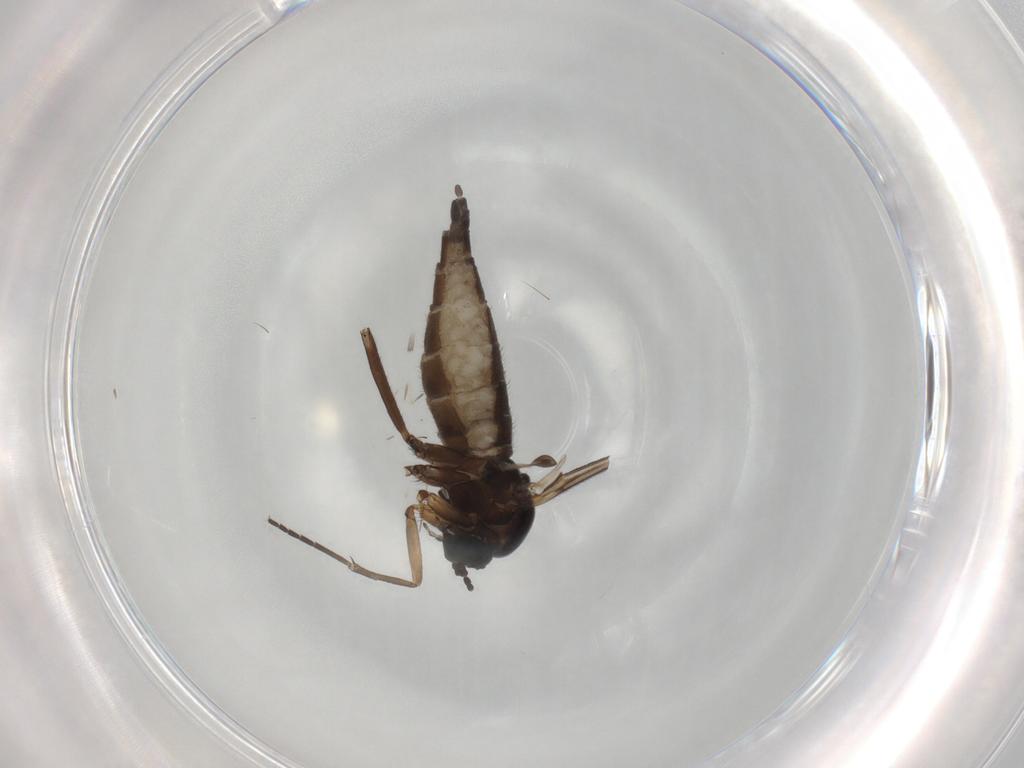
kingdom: Animalia
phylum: Arthropoda
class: Insecta
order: Diptera
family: Sciaridae
